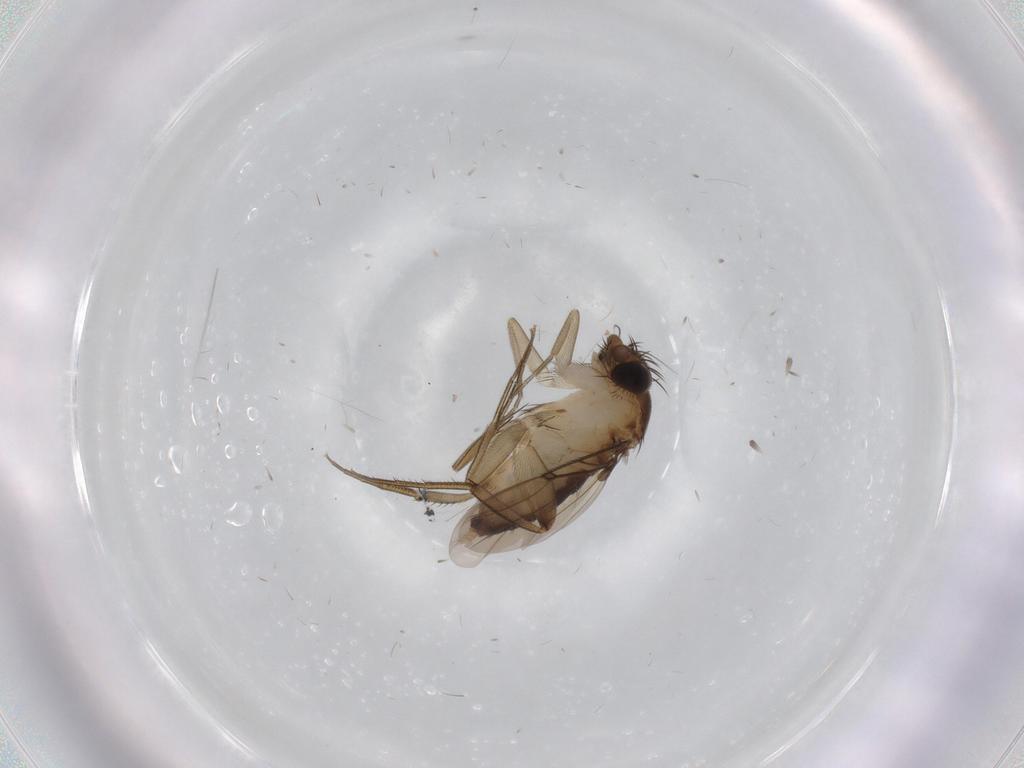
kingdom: Animalia
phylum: Arthropoda
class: Insecta
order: Diptera
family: Phoridae
